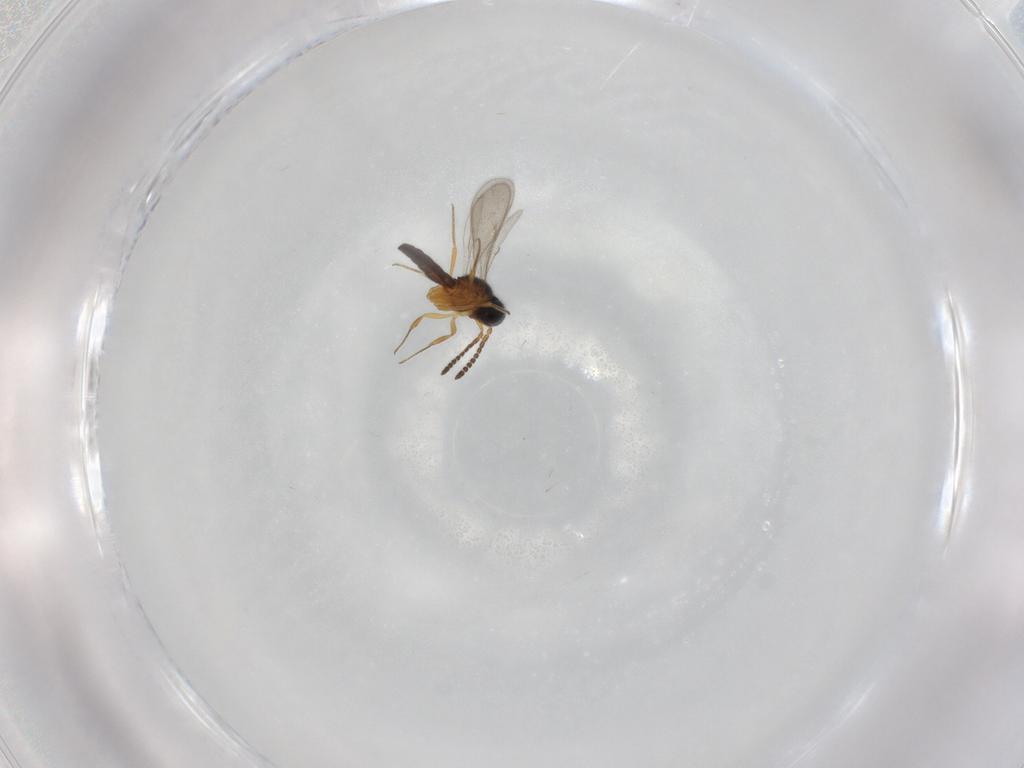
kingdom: Animalia
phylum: Arthropoda
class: Insecta
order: Hymenoptera
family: Scelionidae
